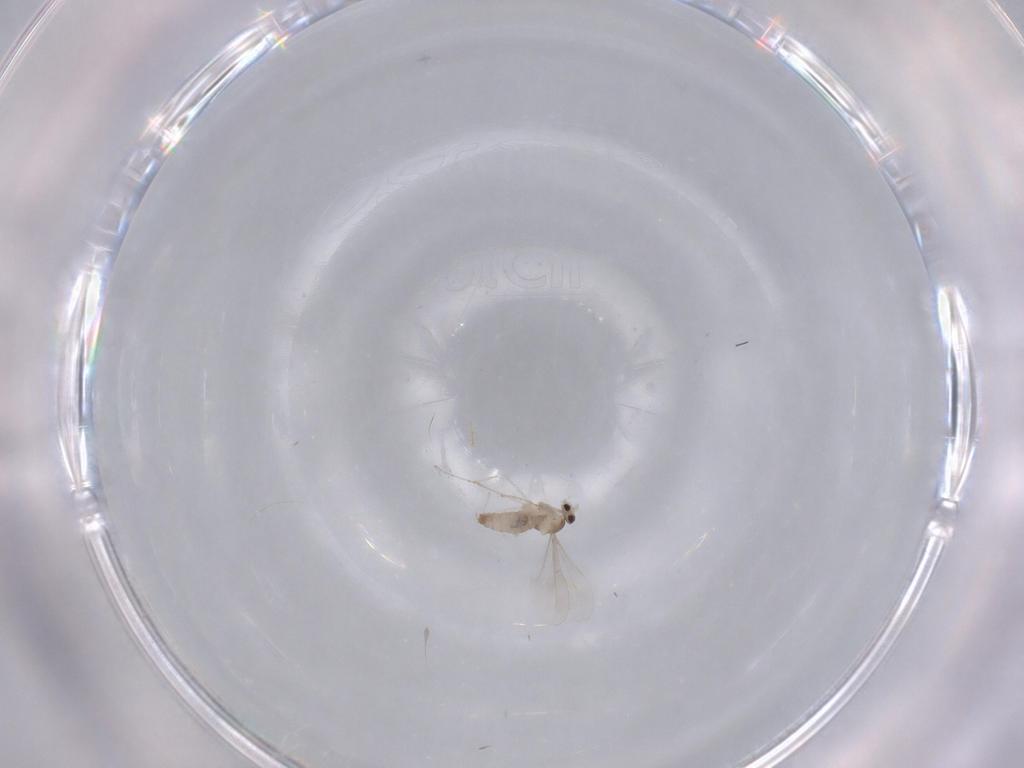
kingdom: Animalia
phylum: Arthropoda
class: Insecta
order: Diptera
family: Cecidomyiidae
